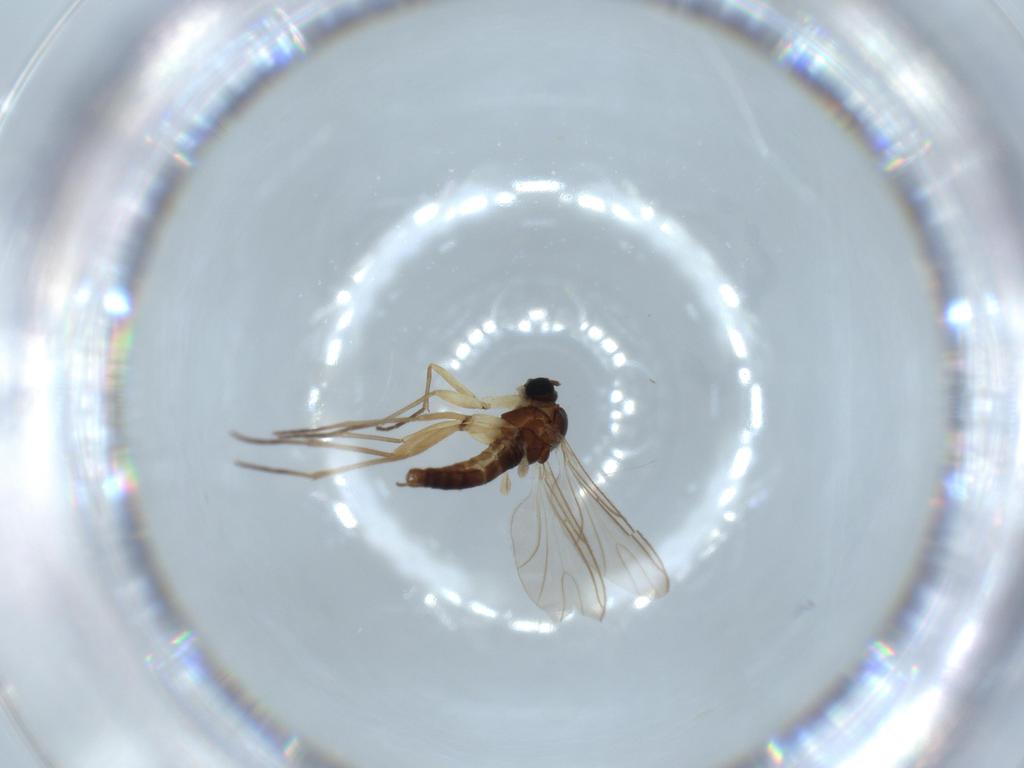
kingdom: Animalia
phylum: Arthropoda
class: Insecta
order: Diptera
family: Sciaridae
